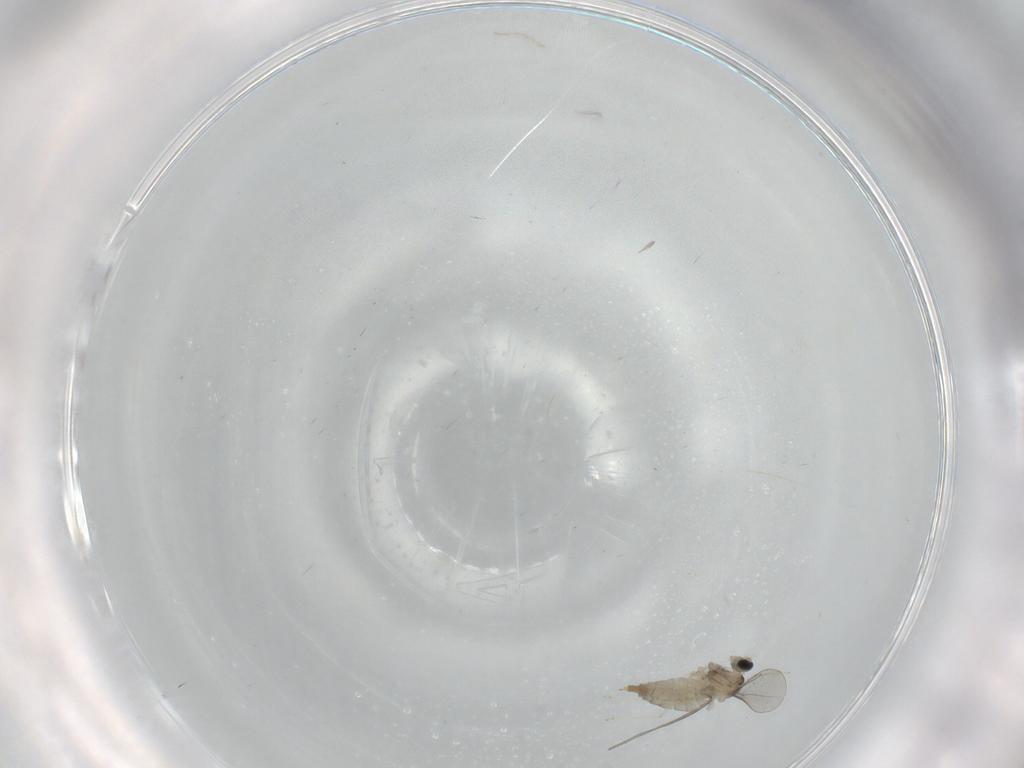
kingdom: Animalia
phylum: Arthropoda
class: Insecta
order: Diptera
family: Cecidomyiidae
